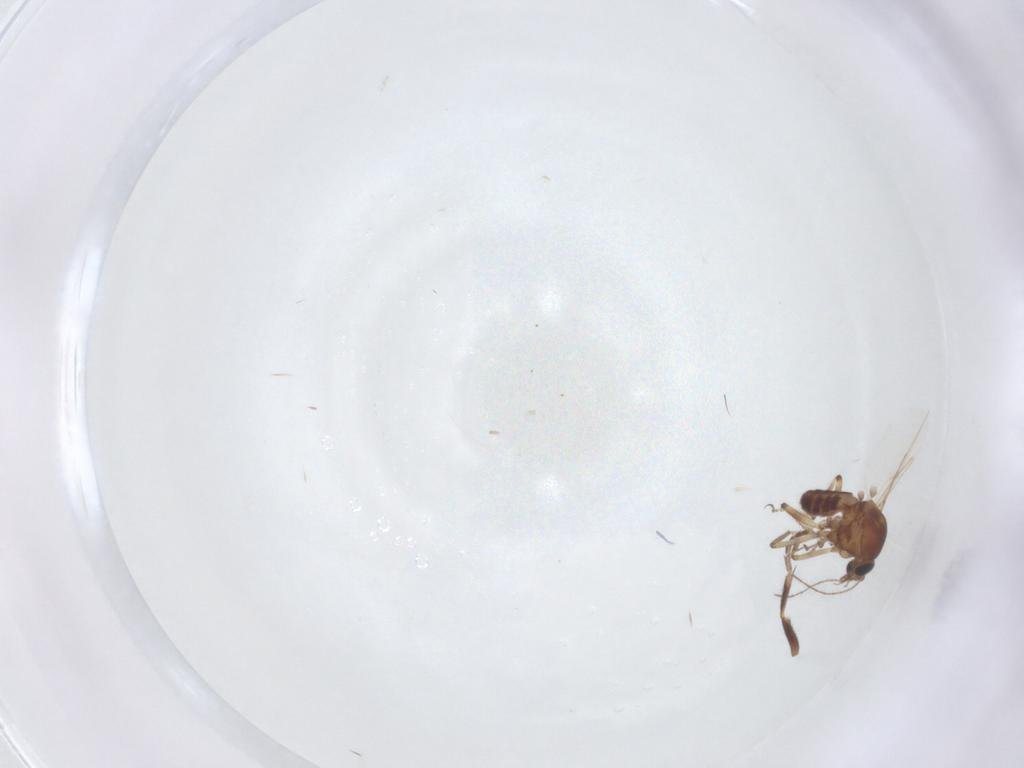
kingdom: Animalia
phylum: Arthropoda
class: Insecta
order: Diptera
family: Ceratopogonidae
